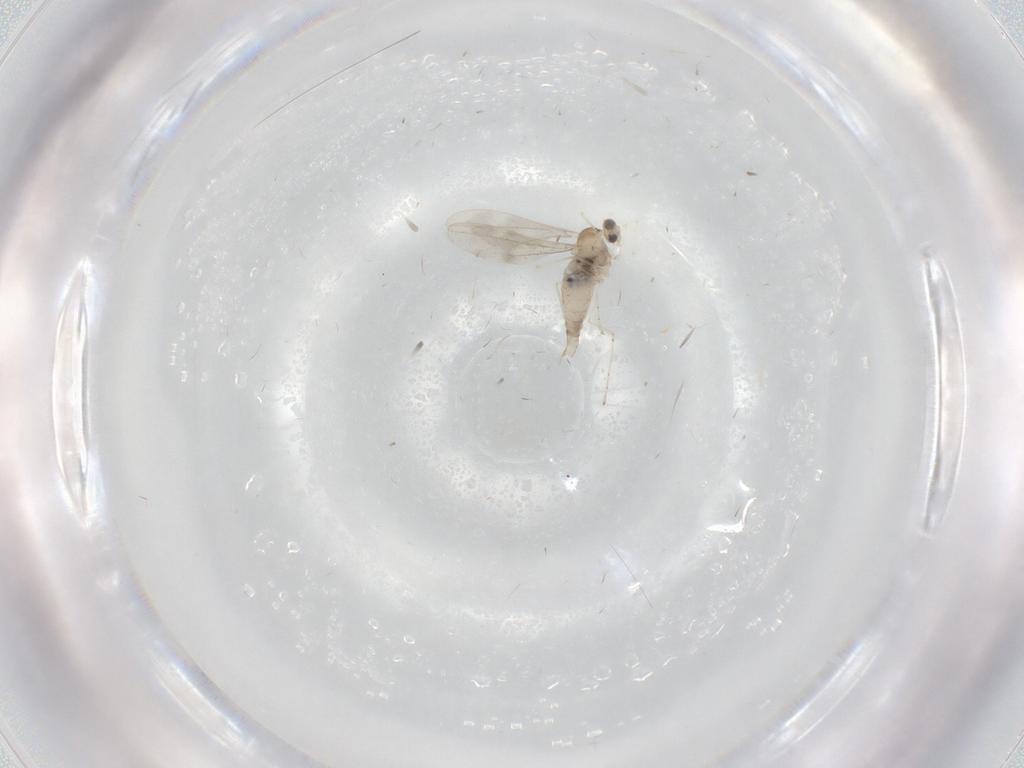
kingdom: Animalia
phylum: Arthropoda
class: Insecta
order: Diptera
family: Cecidomyiidae
